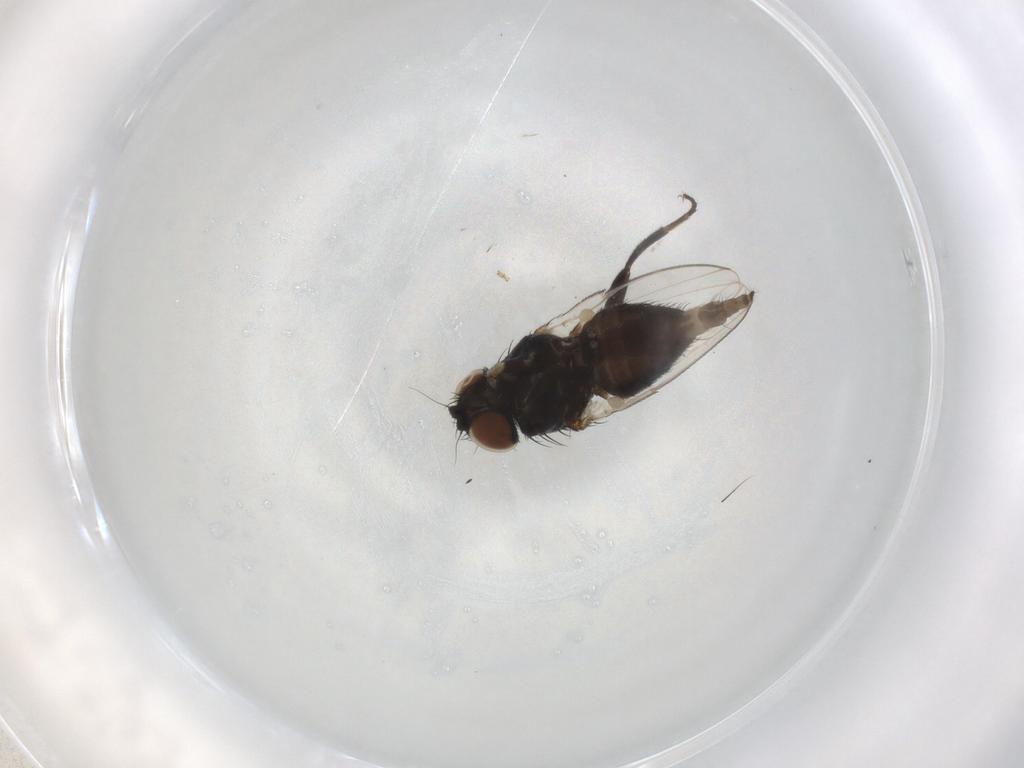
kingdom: Animalia
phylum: Arthropoda
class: Insecta
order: Diptera
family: Milichiidae
